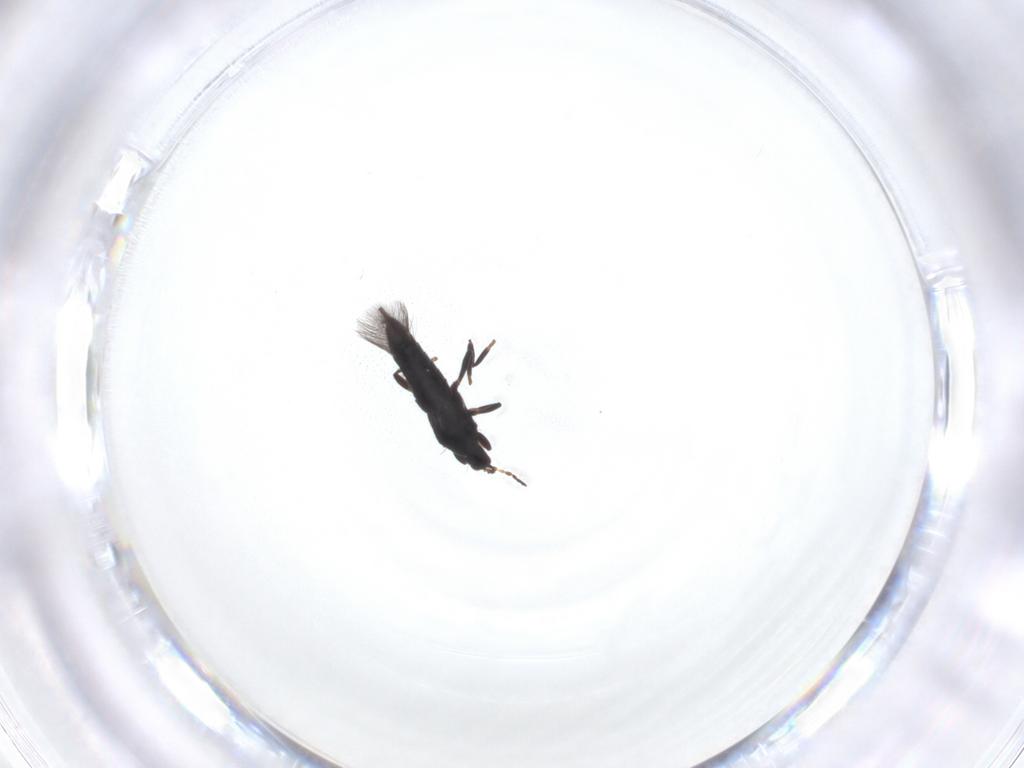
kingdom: Animalia
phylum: Arthropoda
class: Insecta
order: Thysanoptera
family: Phlaeothripidae
